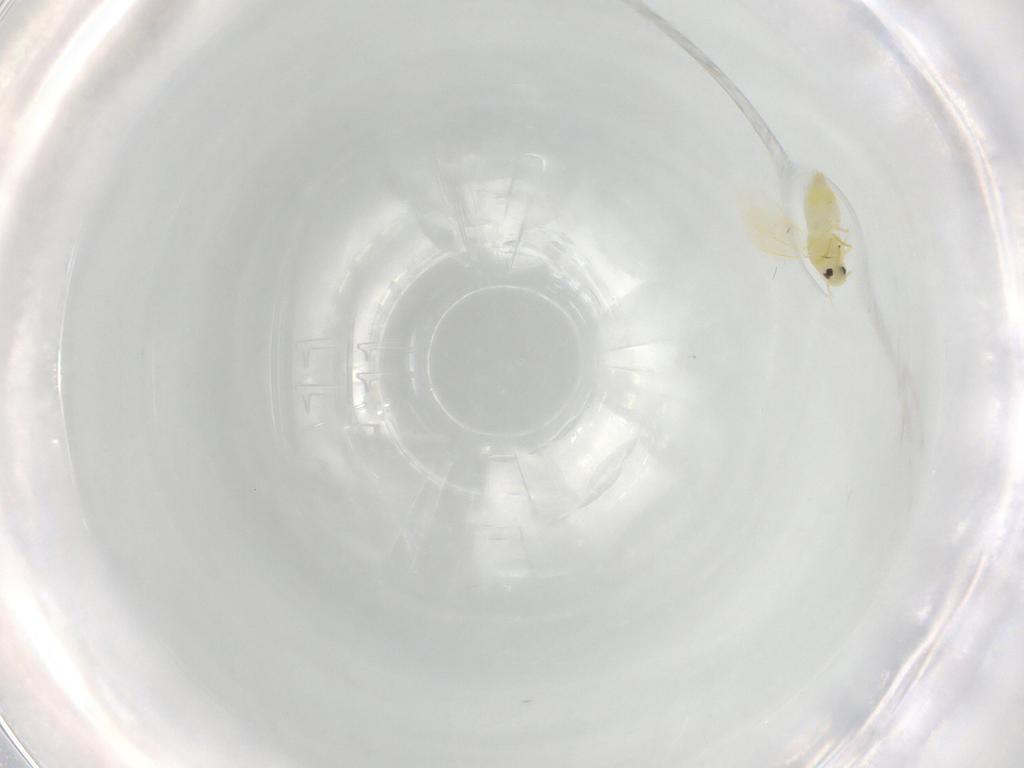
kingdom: Animalia
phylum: Arthropoda
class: Insecta
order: Hemiptera
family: Aleyrodidae
